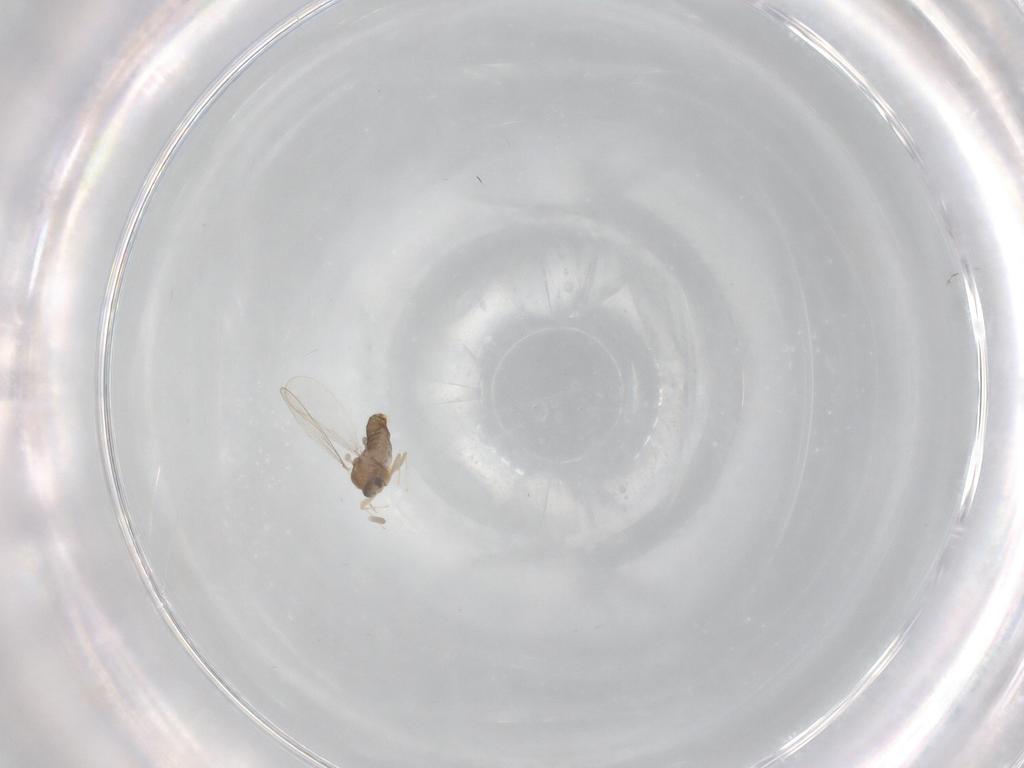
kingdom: Animalia
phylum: Arthropoda
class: Insecta
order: Diptera
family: Chironomidae
